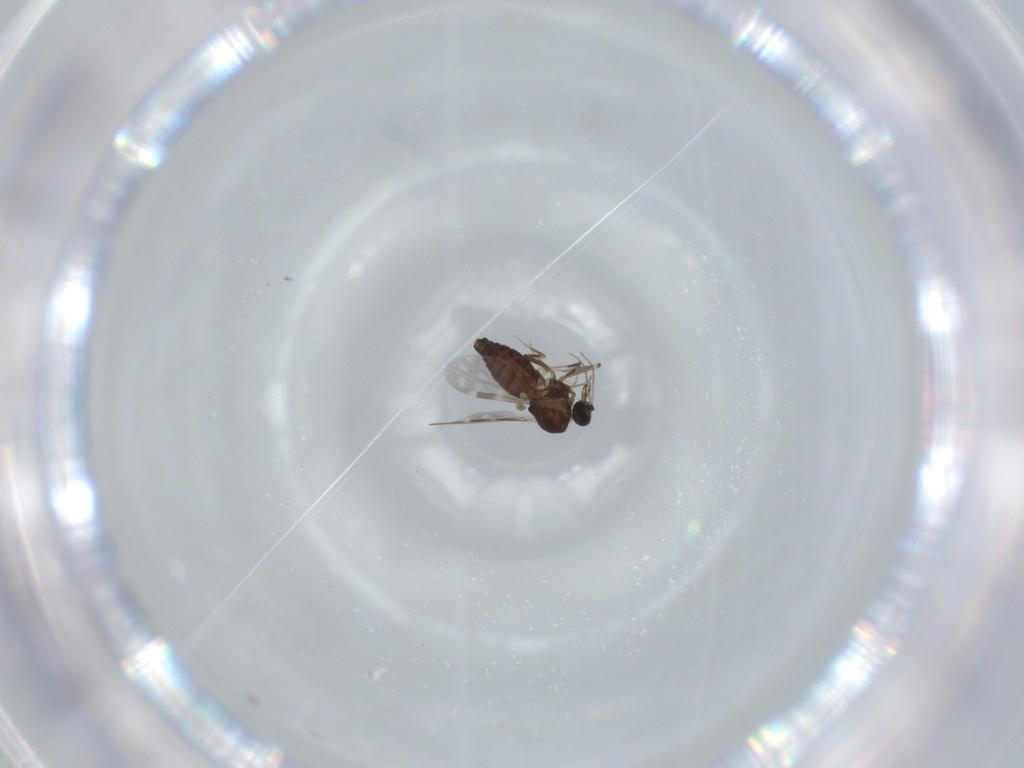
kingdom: Animalia
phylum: Arthropoda
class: Insecta
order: Diptera
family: Ceratopogonidae
